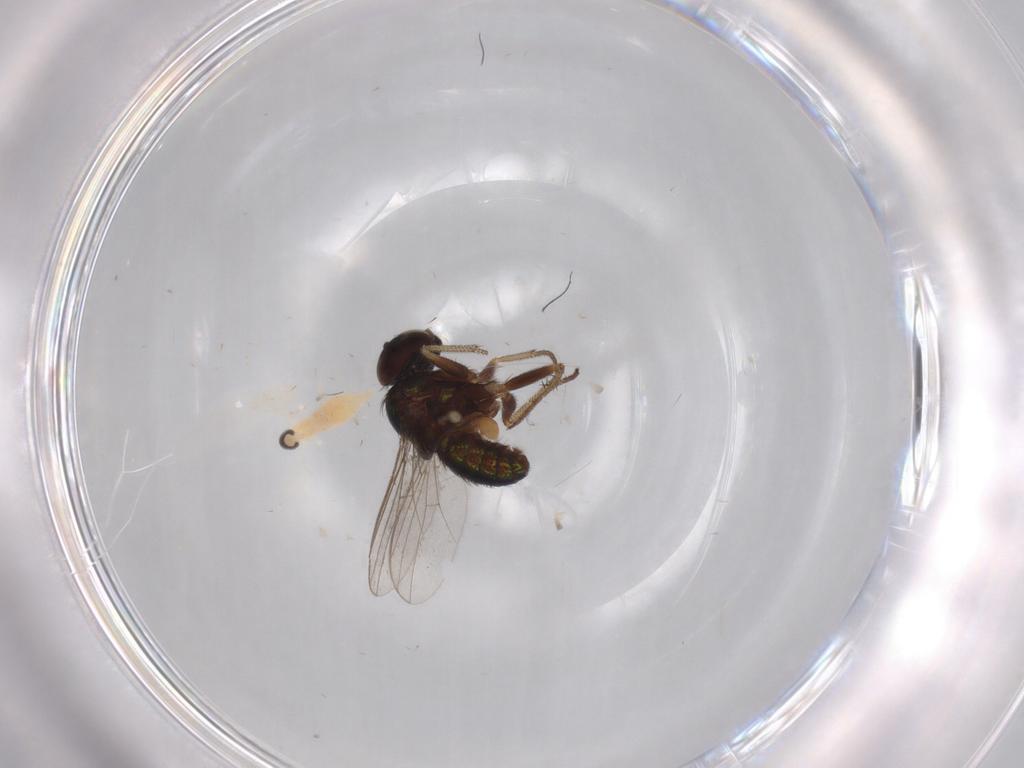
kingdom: Animalia
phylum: Arthropoda
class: Insecta
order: Diptera
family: Cecidomyiidae
